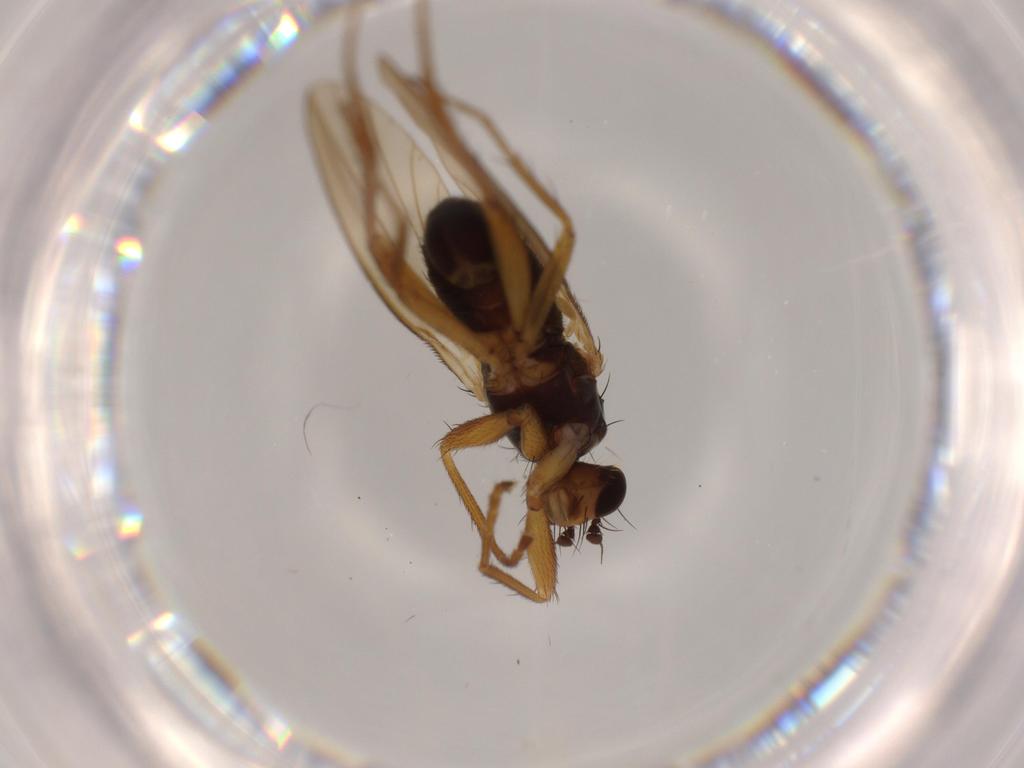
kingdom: Animalia
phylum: Arthropoda
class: Insecta
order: Diptera
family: Lonchopteridae
